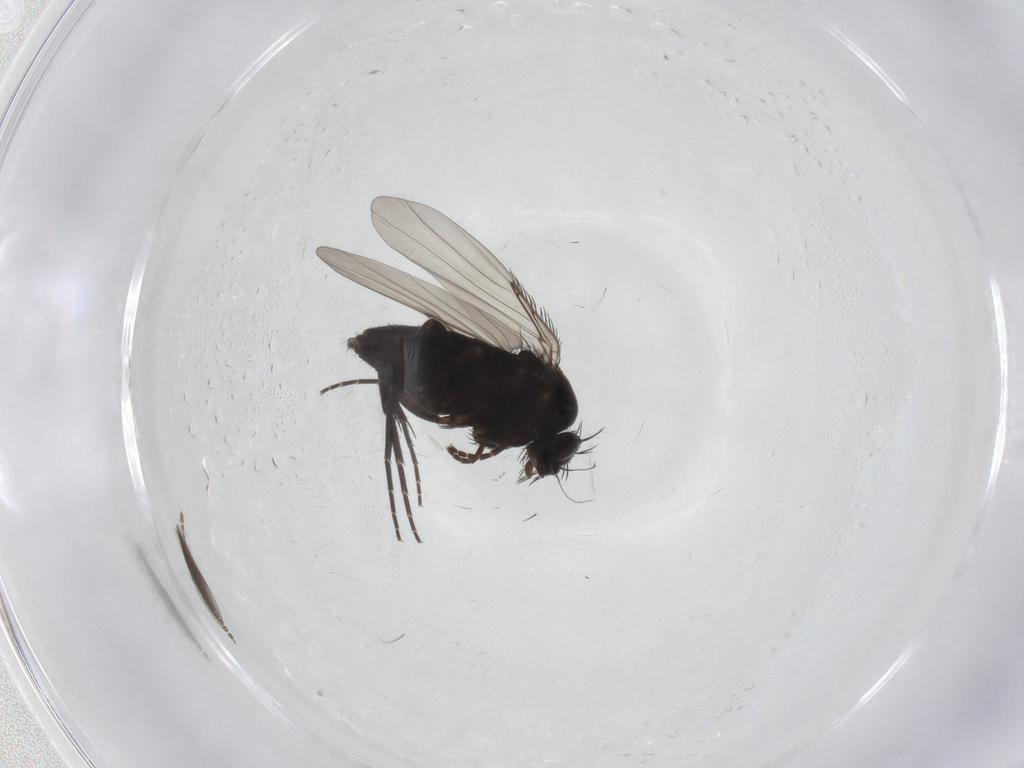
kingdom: Animalia
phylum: Arthropoda
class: Insecta
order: Diptera
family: Phoridae
